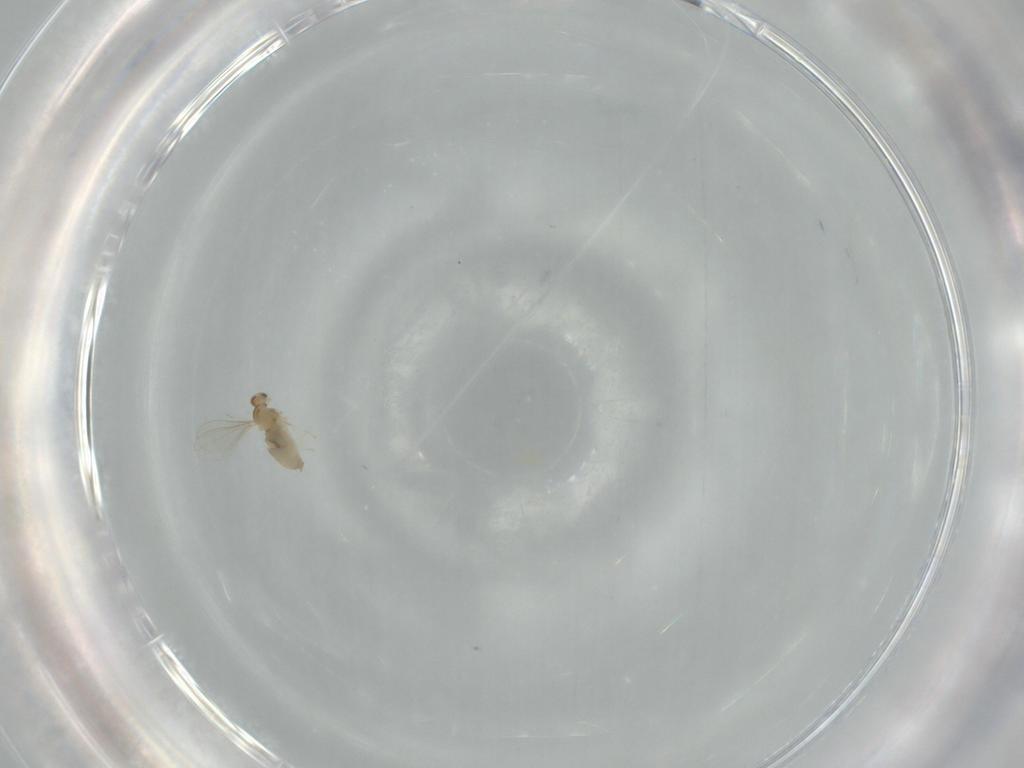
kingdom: Animalia
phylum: Arthropoda
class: Insecta
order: Diptera
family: Cecidomyiidae
